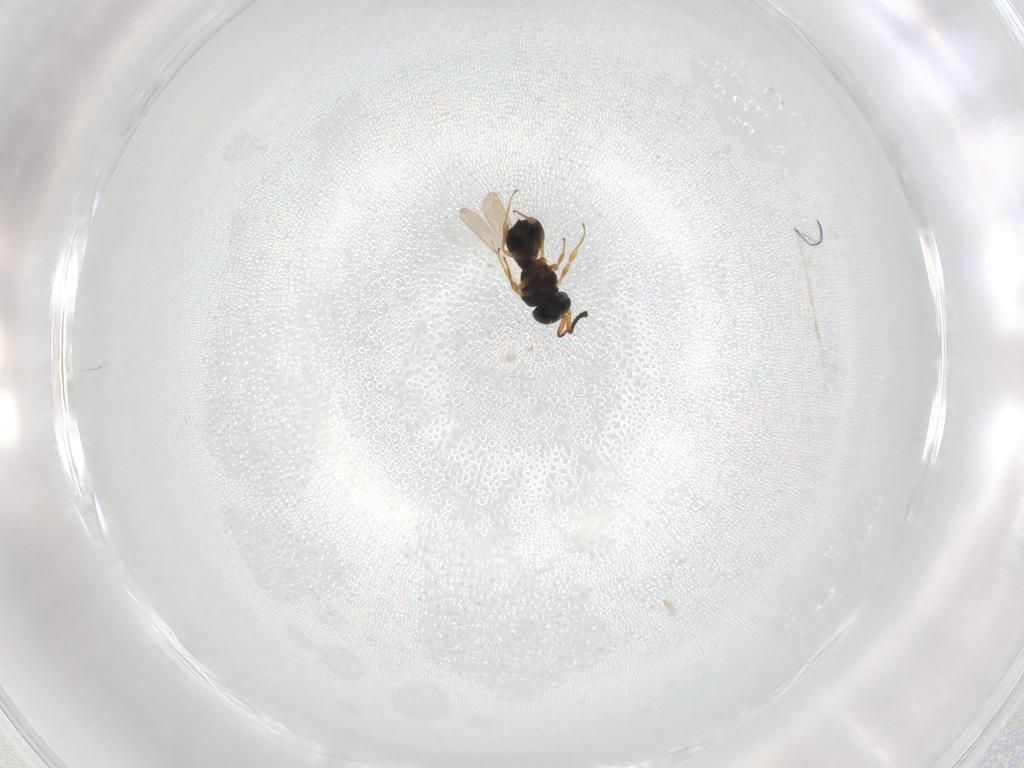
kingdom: Animalia
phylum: Arthropoda
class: Insecta
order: Hymenoptera
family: Scelionidae
